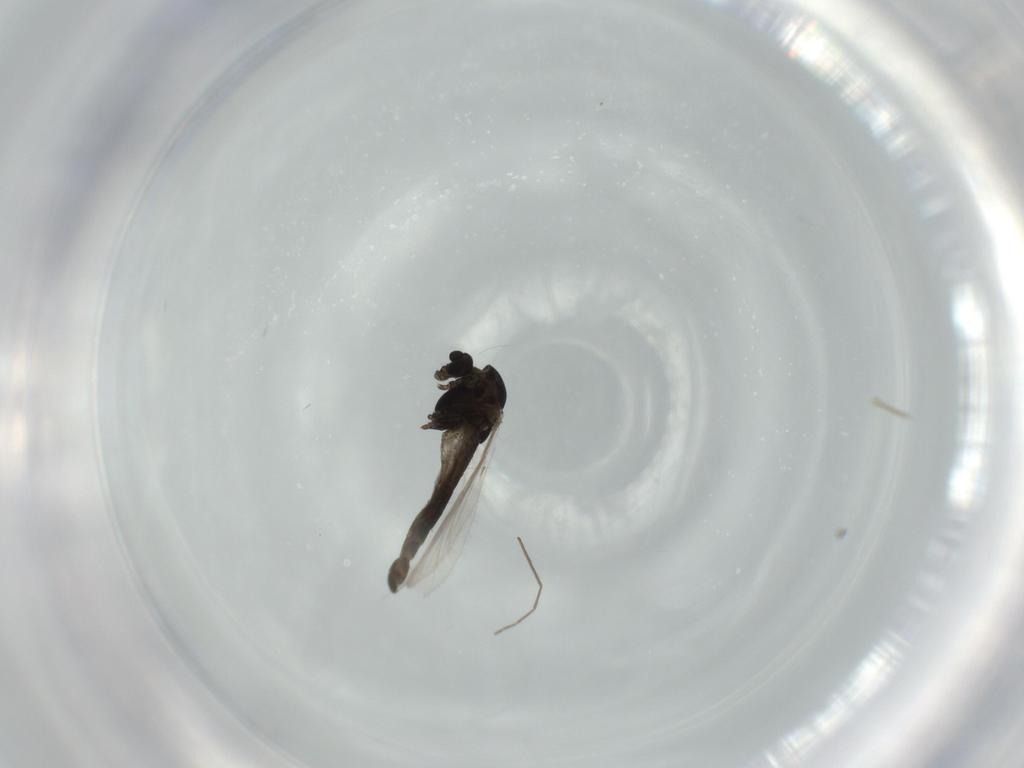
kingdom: Animalia
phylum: Arthropoda
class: Insecta
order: Diptera
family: Chironomidae
